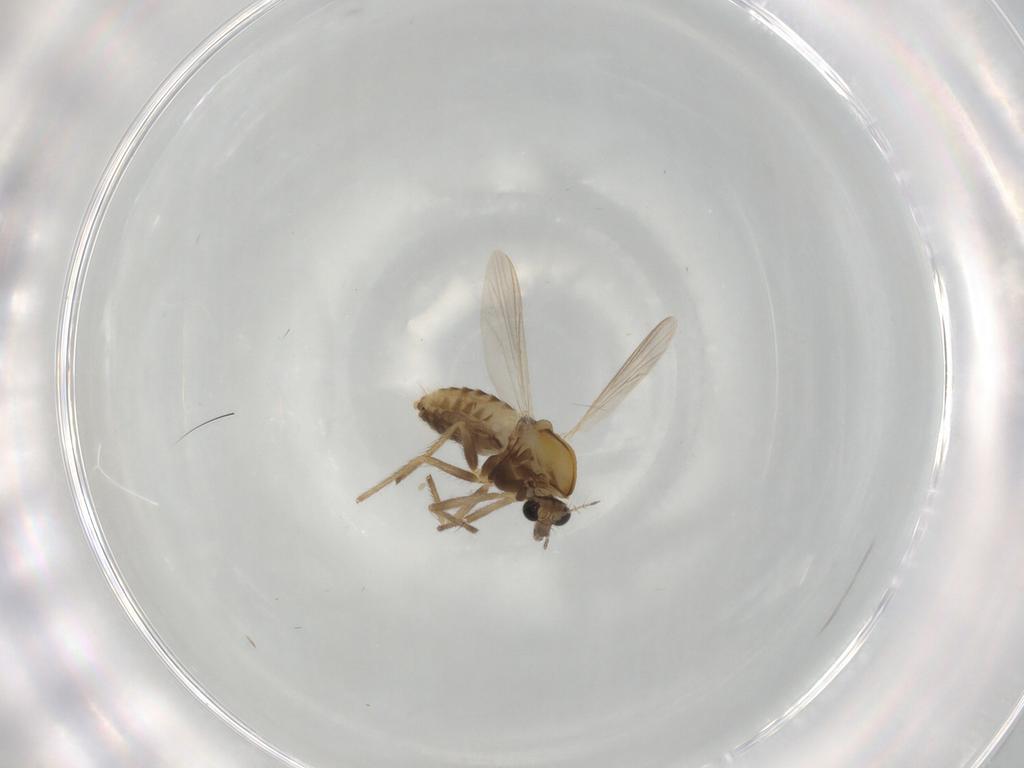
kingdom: Animalia
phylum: Arthropoda
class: Insecta
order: Diptera
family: Chironomidae
